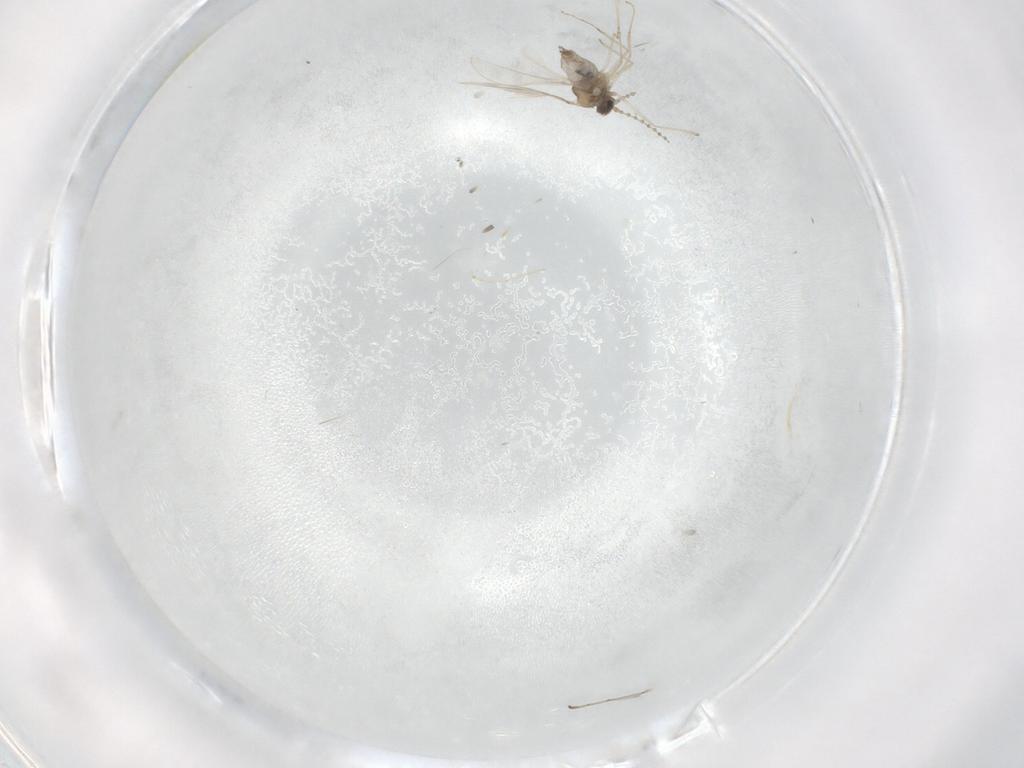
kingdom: Animalia
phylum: Arthropoda
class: Insecta
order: Diptera
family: Cecidomyiidae
